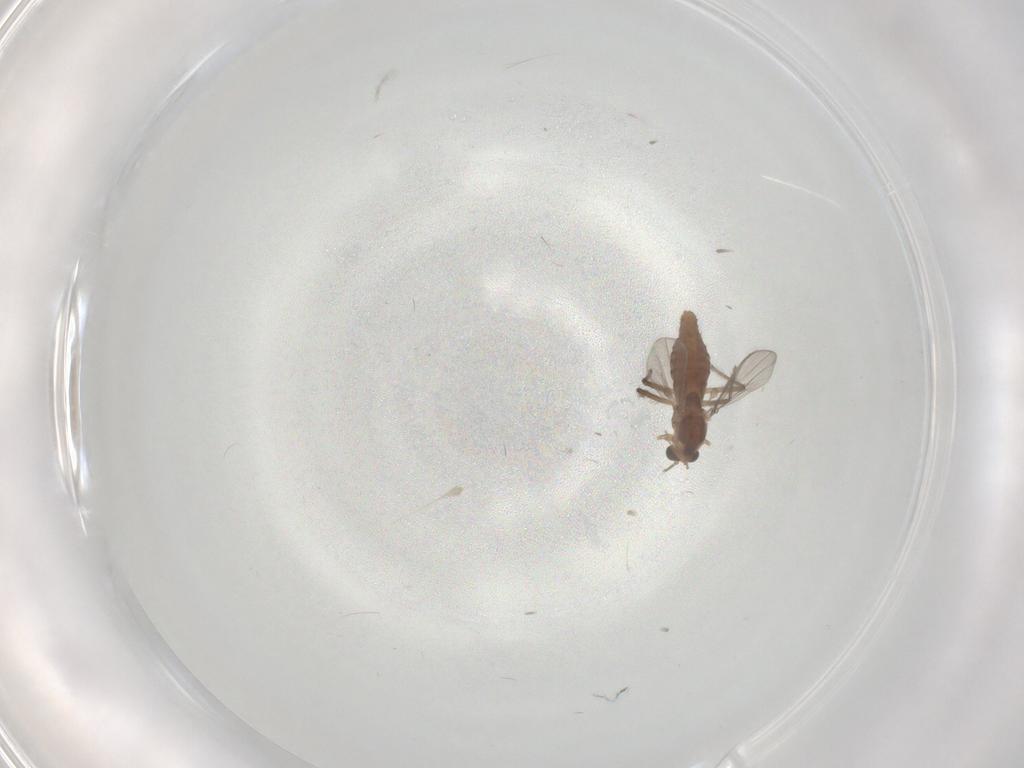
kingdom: Animalia
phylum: Arthropoda
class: Insecta
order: Diptera
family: Chironomidae
